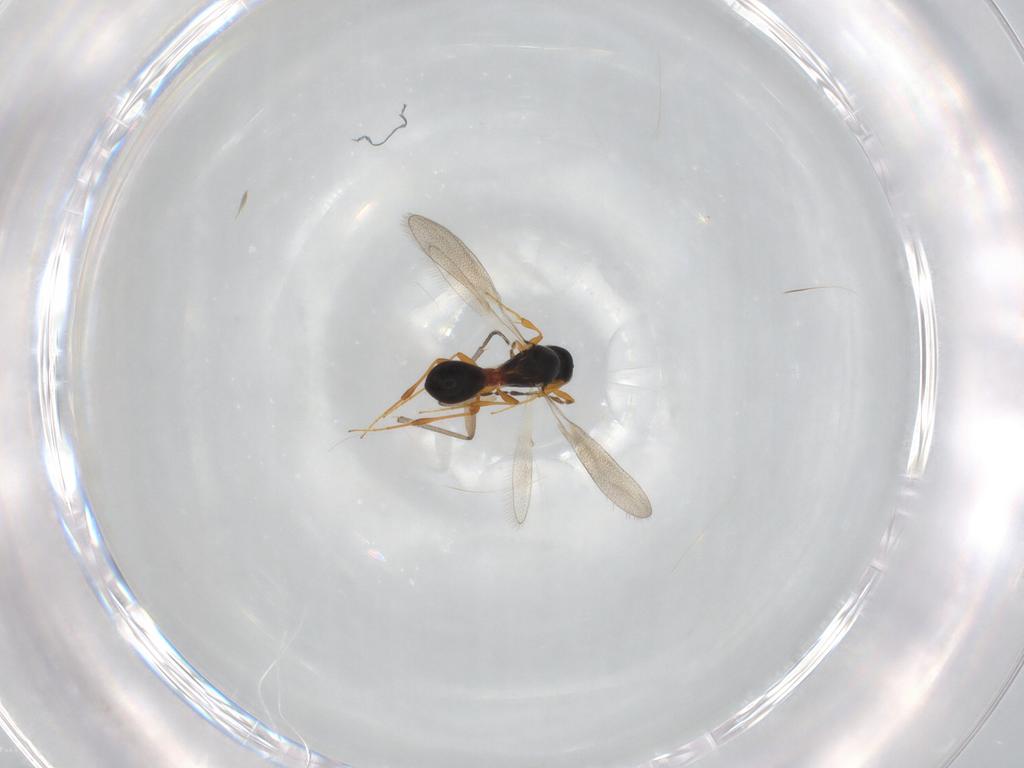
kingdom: Animalia
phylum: Arthropoda
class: Insecta
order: Hymenoptera
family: Platygastridae
